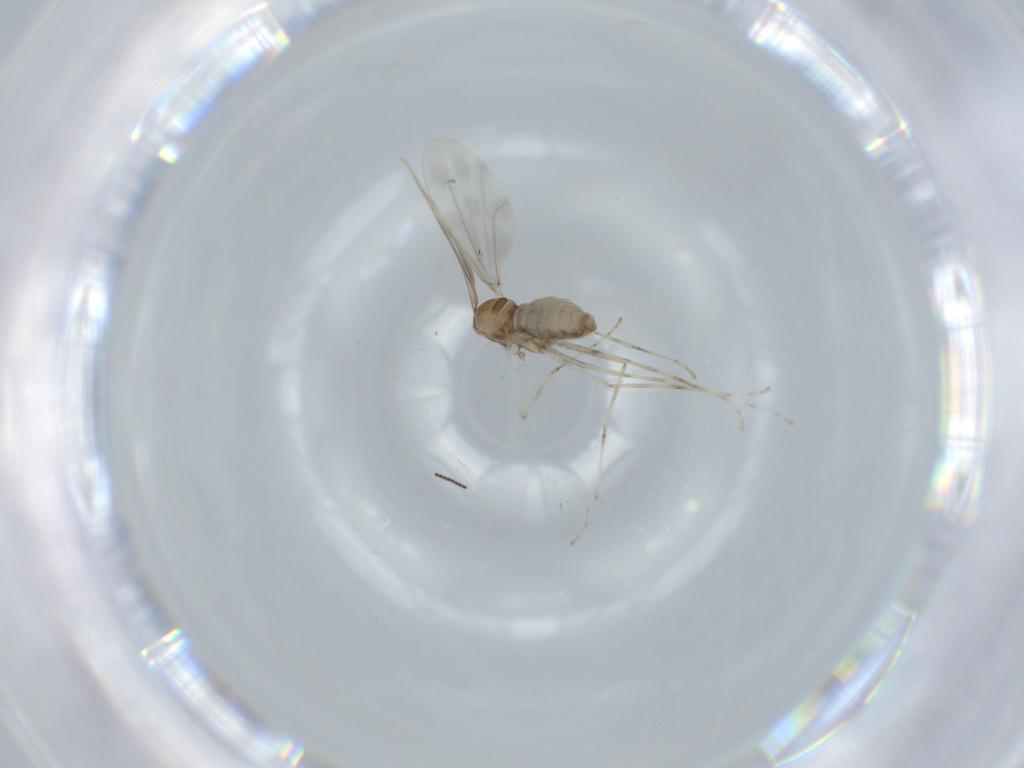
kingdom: Animalia
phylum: Arthropoda
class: Insecta
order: Diptera
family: Cecidomyiidae
